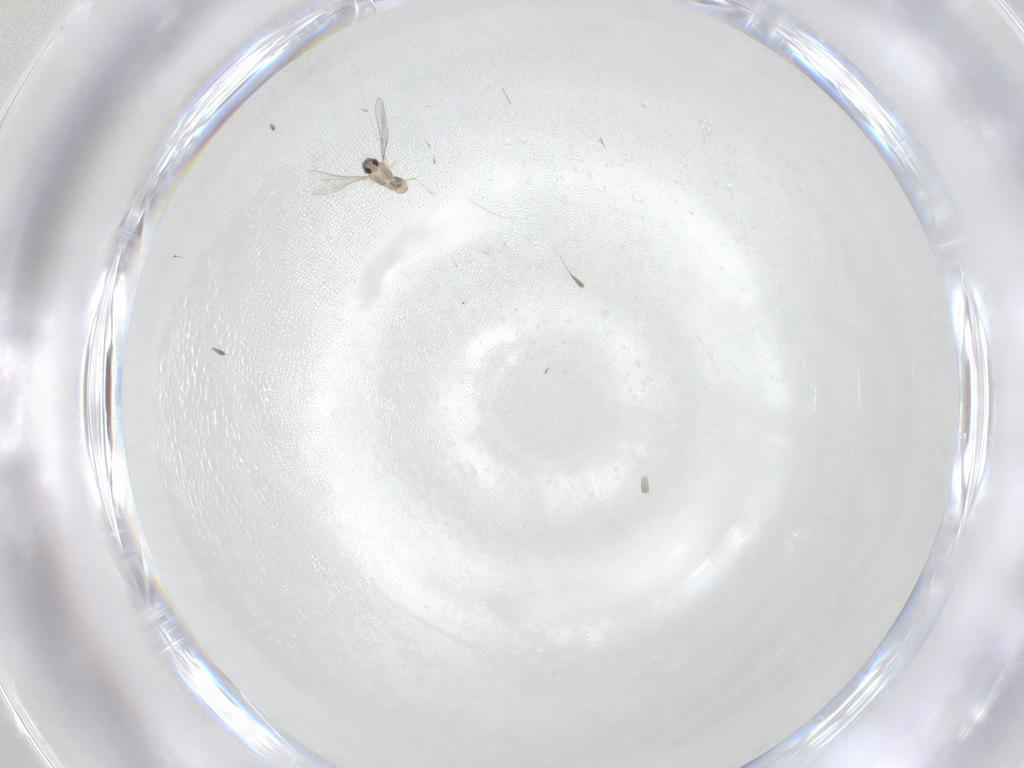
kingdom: Animalia
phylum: Arthropoda
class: Insecta
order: Diptera
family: Cecidomyiidae
